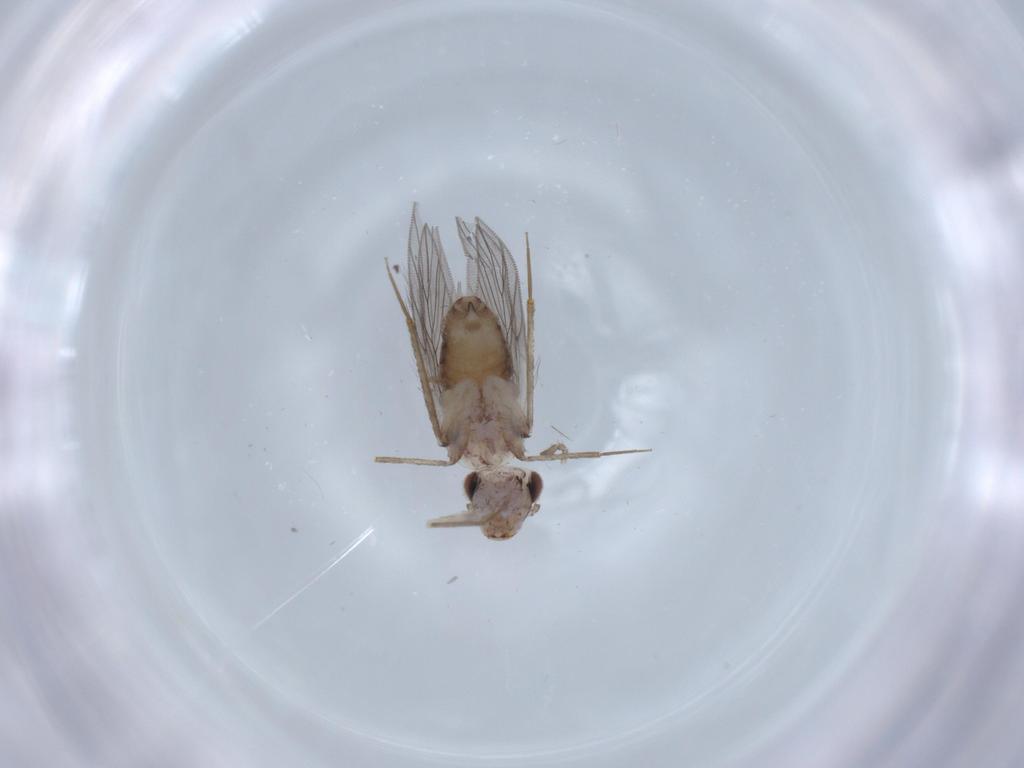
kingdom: Animalia
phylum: Arthropoda
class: Insecta
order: Psocodea
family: Lepidopsocidae
